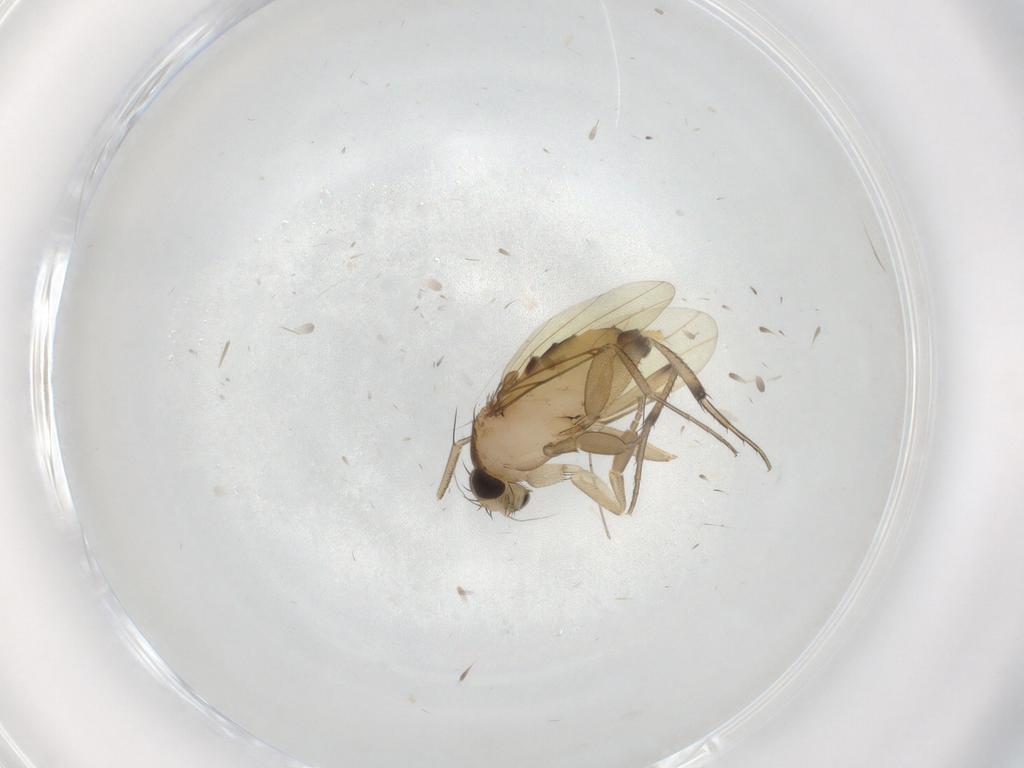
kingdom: Animalia
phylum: Arthropoda
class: Insecta
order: Diptera
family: Phoridae
